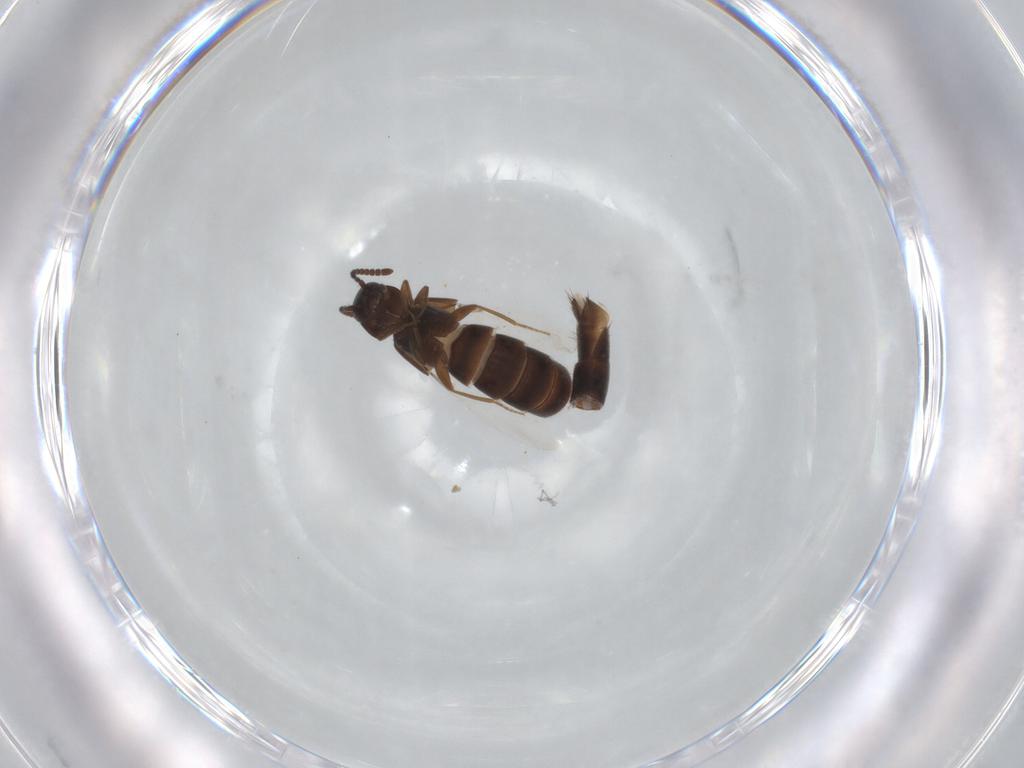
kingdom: Animalia
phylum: Arthropoda
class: Insecta
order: Coleoptera
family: Staphylinidae
